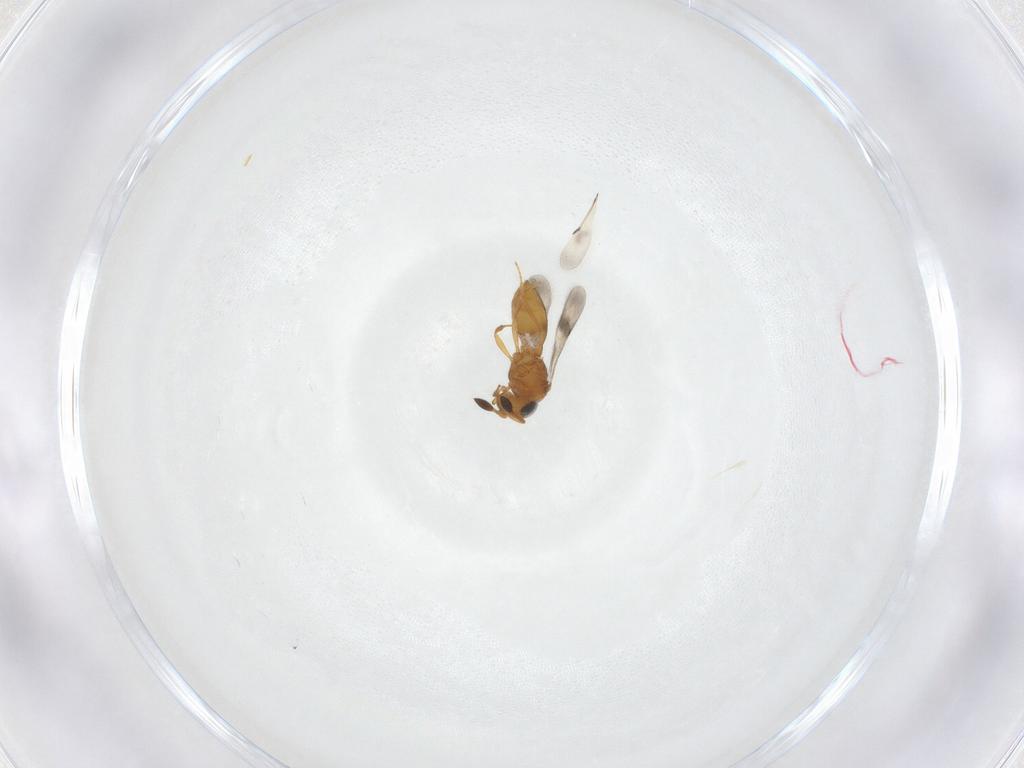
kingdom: Animalia
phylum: Arthropoda
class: Insecta
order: Hymenoptera
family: Scelionidae
